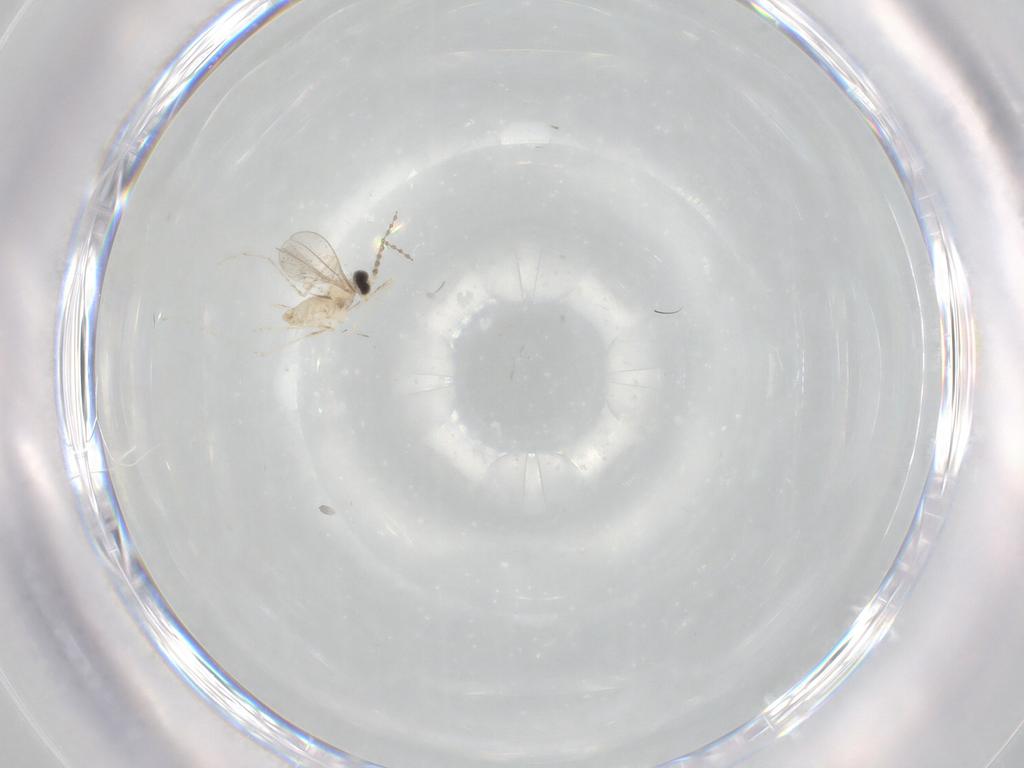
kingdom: Animalia
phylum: Arthropoda
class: Insecta
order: Diptera
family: Cecidomyiidae
